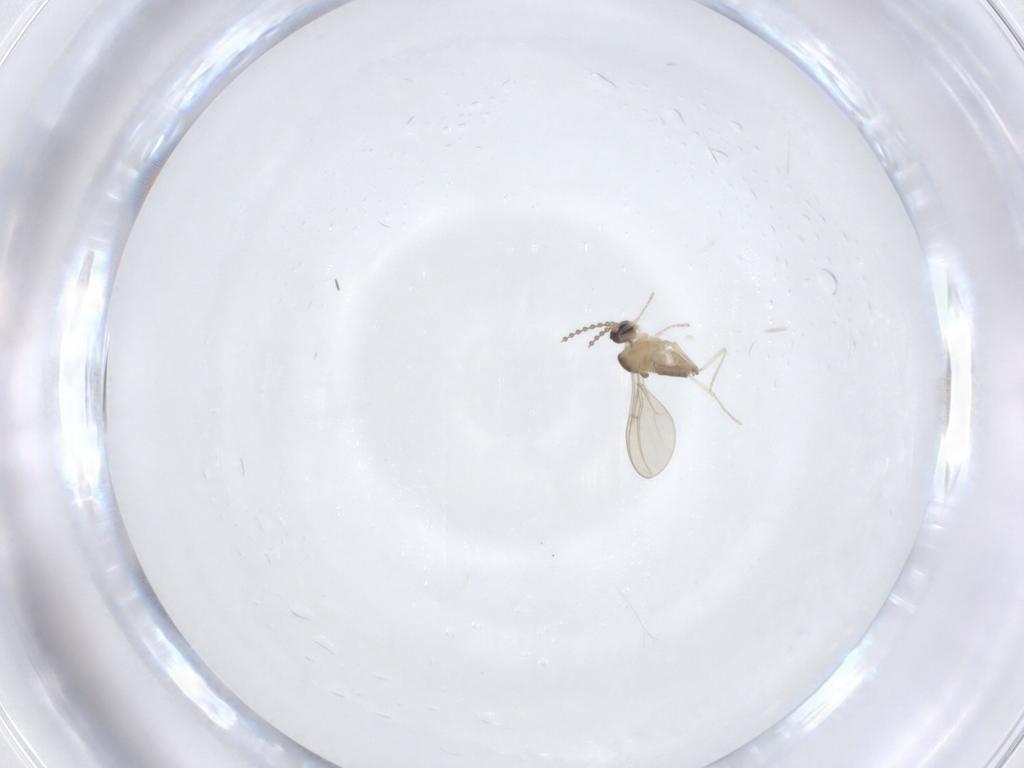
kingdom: Animalia
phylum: Arthropoda
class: Insecta
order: Diptera
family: Cecidomyiidae
